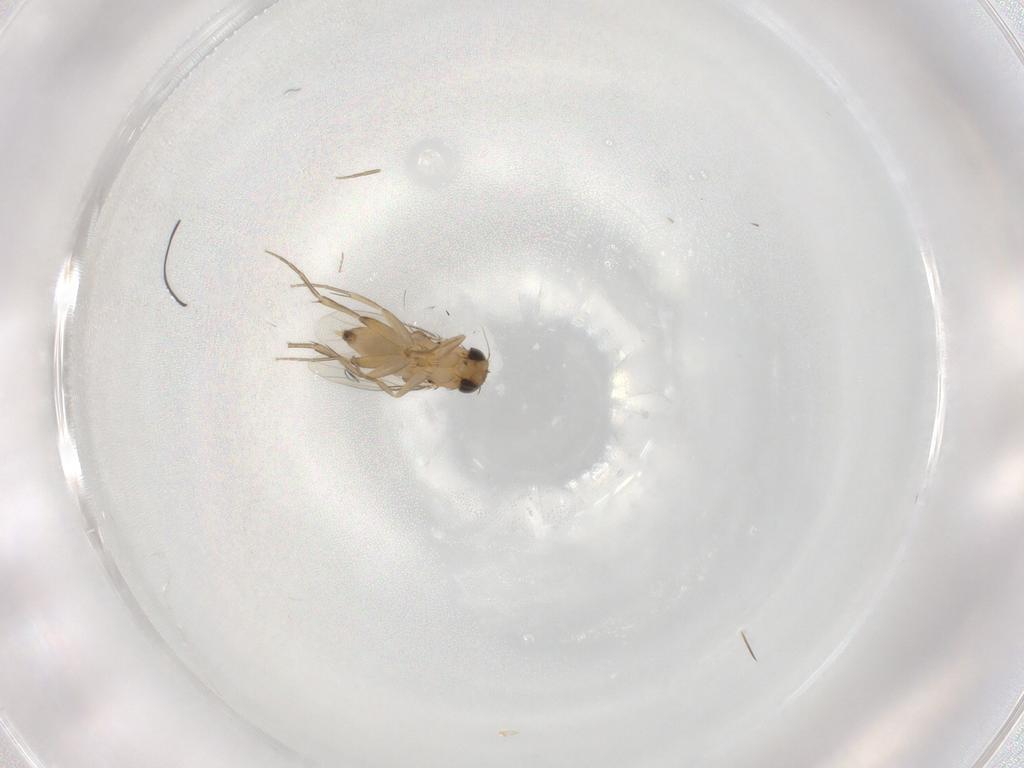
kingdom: Animalia
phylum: Arthropoda
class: Insecta
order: Diptera
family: Phoridae
